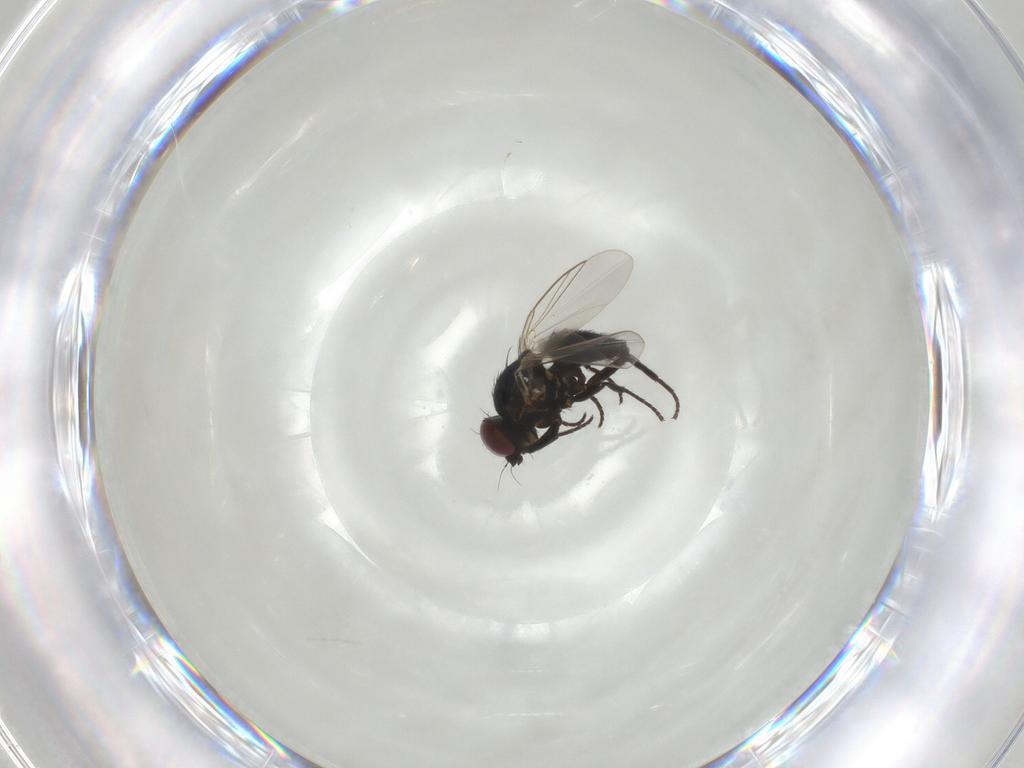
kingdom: Animalia
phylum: Arthropoda
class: Insecta
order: Diptera
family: Agromyzidae
